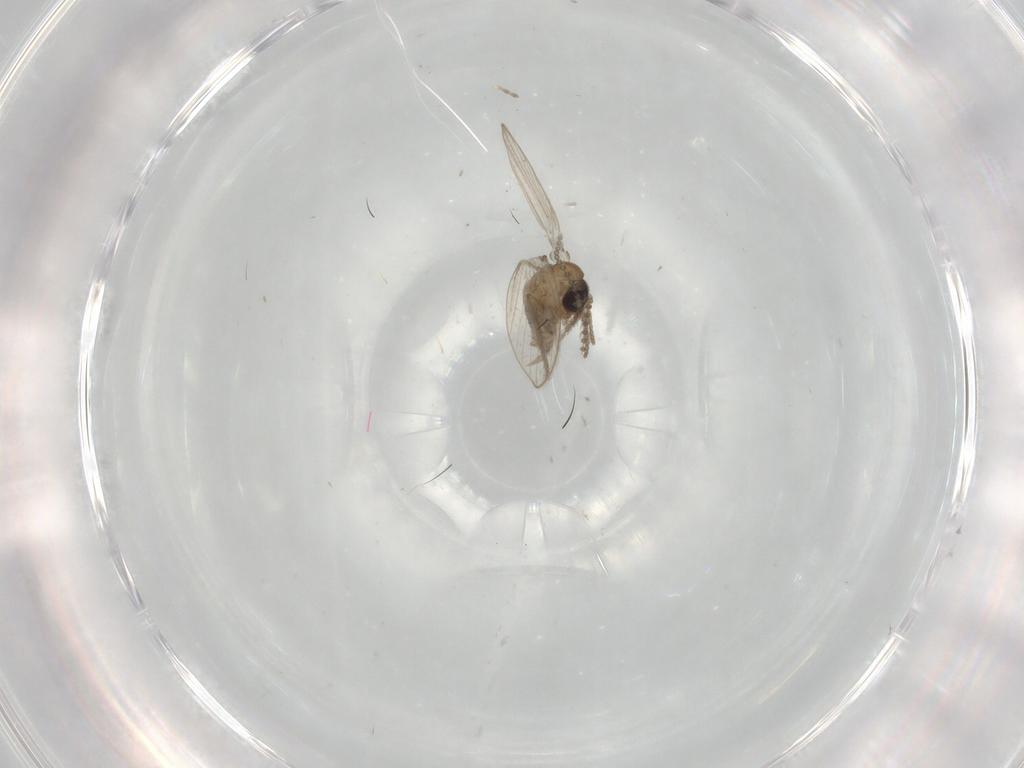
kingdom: Animalia
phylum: Arthropoda
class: Insecta
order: Diptera
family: Psychodidae
